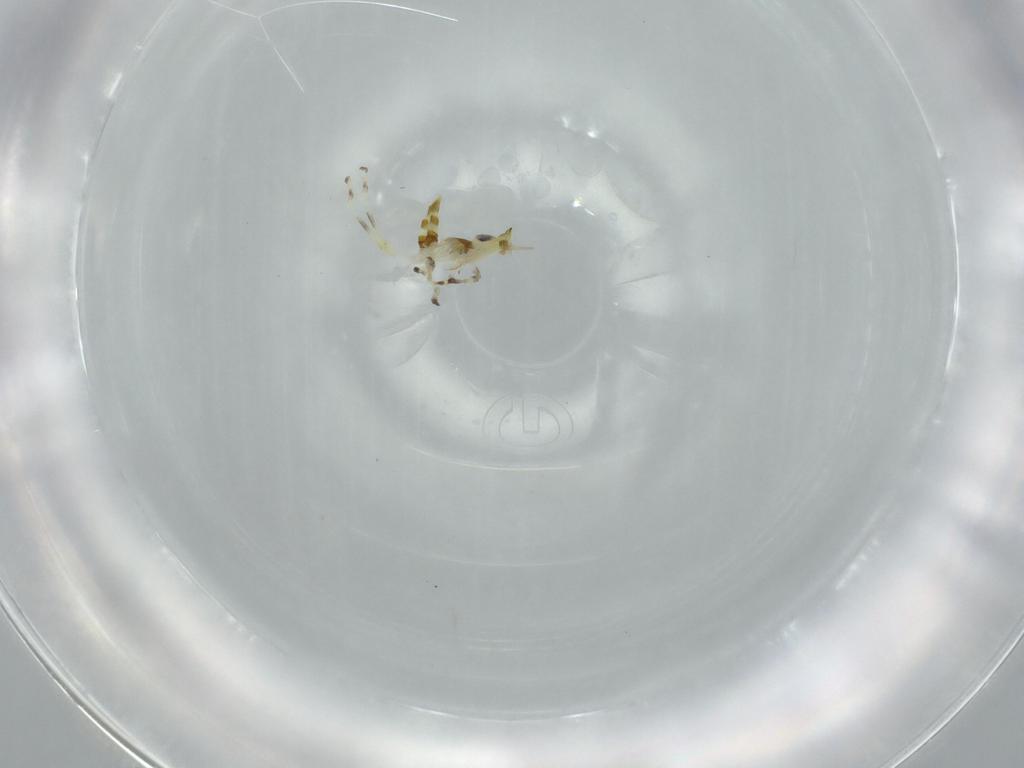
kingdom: Animalia
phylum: Arthropoda
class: Insecta
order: Hemiptera
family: Cicadellidae
